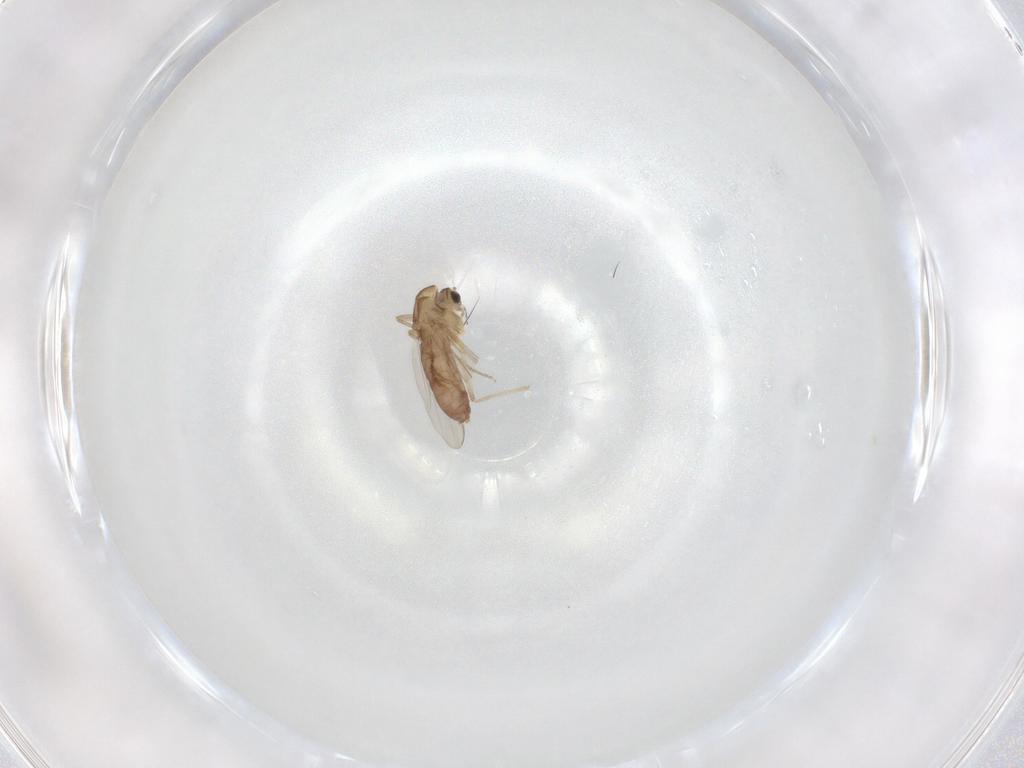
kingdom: Animalia
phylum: Arthropoda
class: Insecta
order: Diptera
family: Chironomidae
